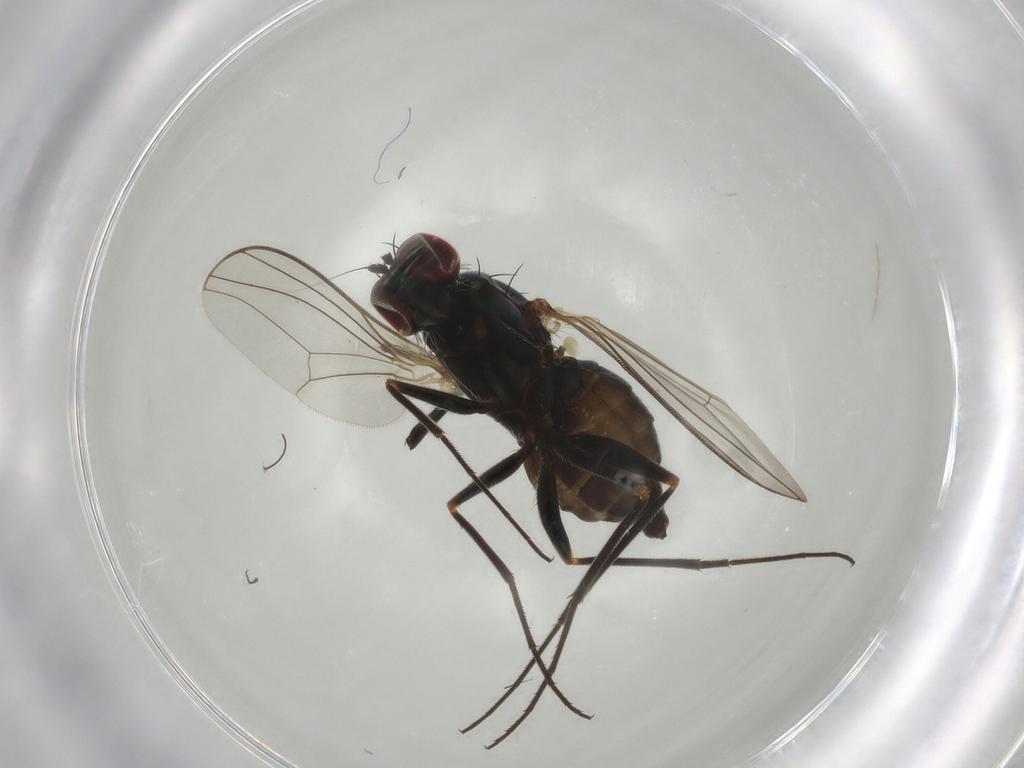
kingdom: Animalia
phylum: Arthropoda
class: Insecta
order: Diptera
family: Dolichopodidae
